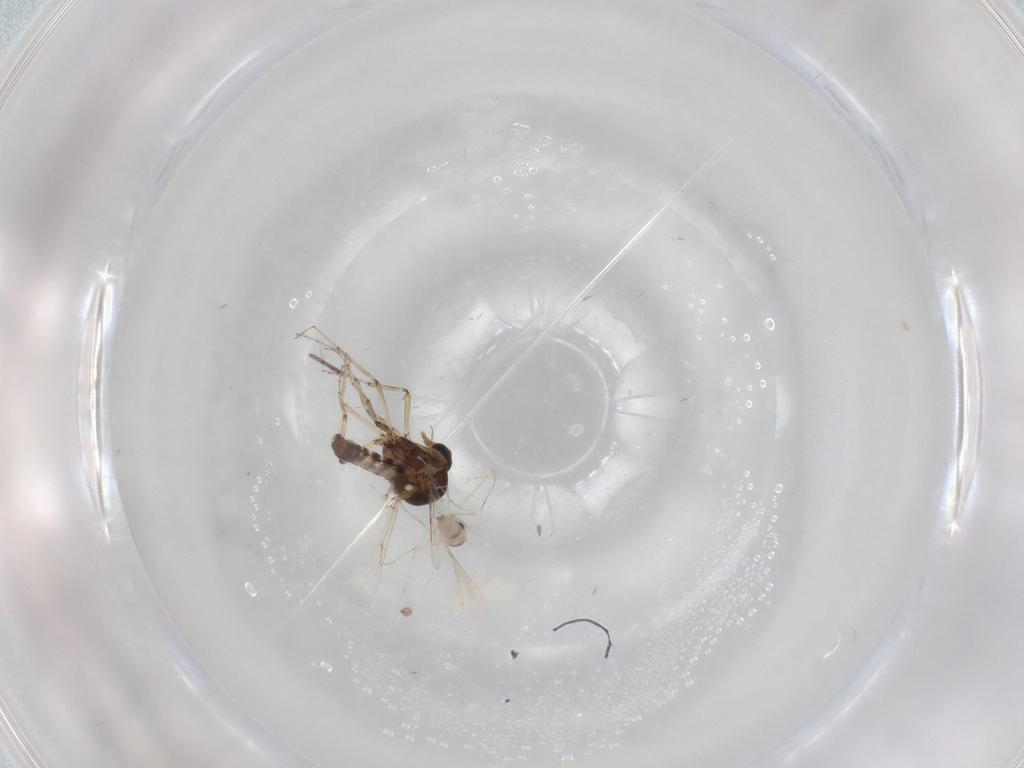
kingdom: Animalia
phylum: Arthropoda
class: Insecta
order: Diptera
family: Ceratopogonidae
